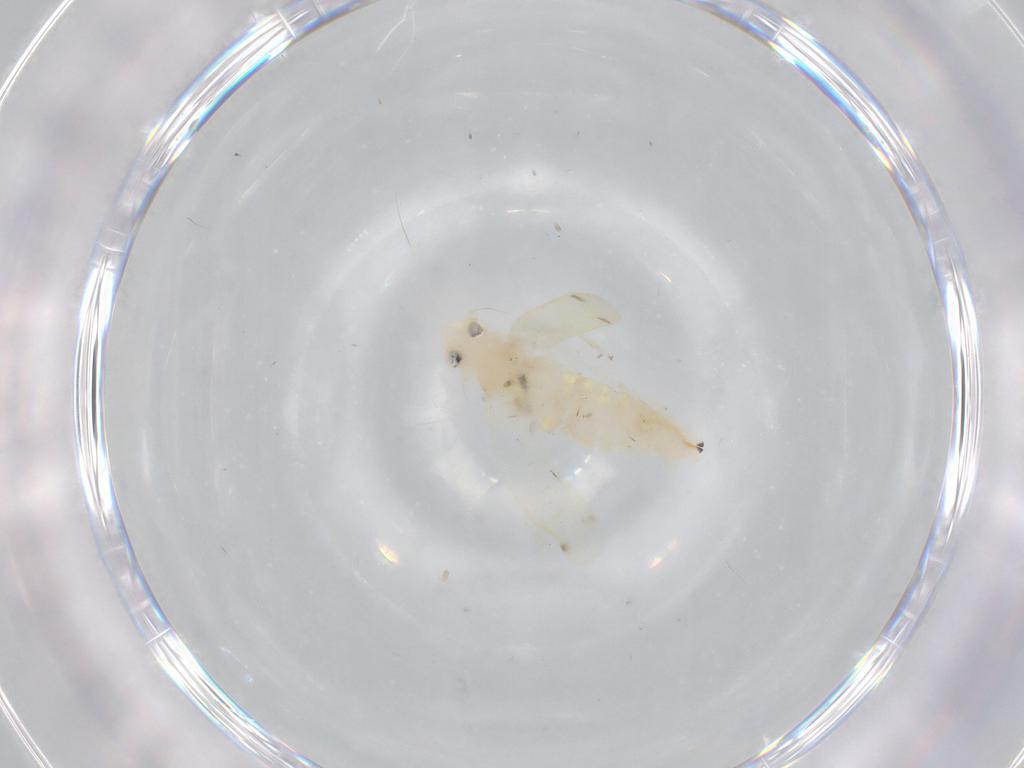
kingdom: Animalia
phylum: Arthropoda
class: Insecta
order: Hemiptera
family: Cicadellidae
